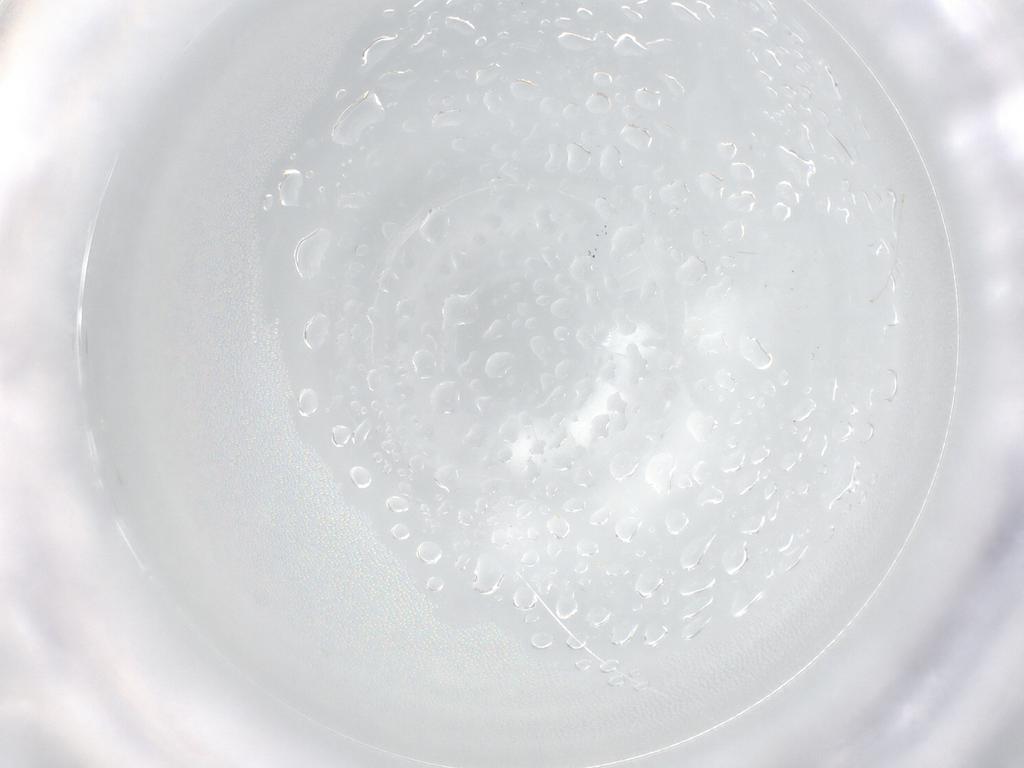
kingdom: Animalia
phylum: Arthropoda
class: Insecta
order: Diptera
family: Cecidomyiidae
